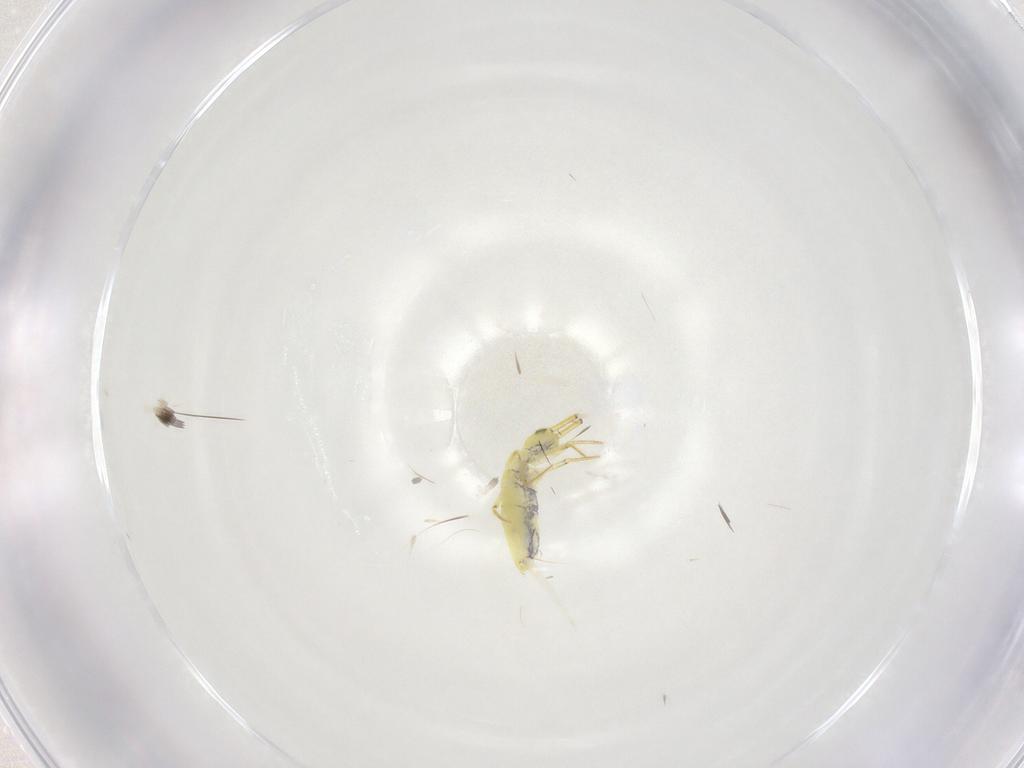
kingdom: Animalia
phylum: Arthropoda
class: Collembola
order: Entomobryomorpha
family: Entomobryidae
